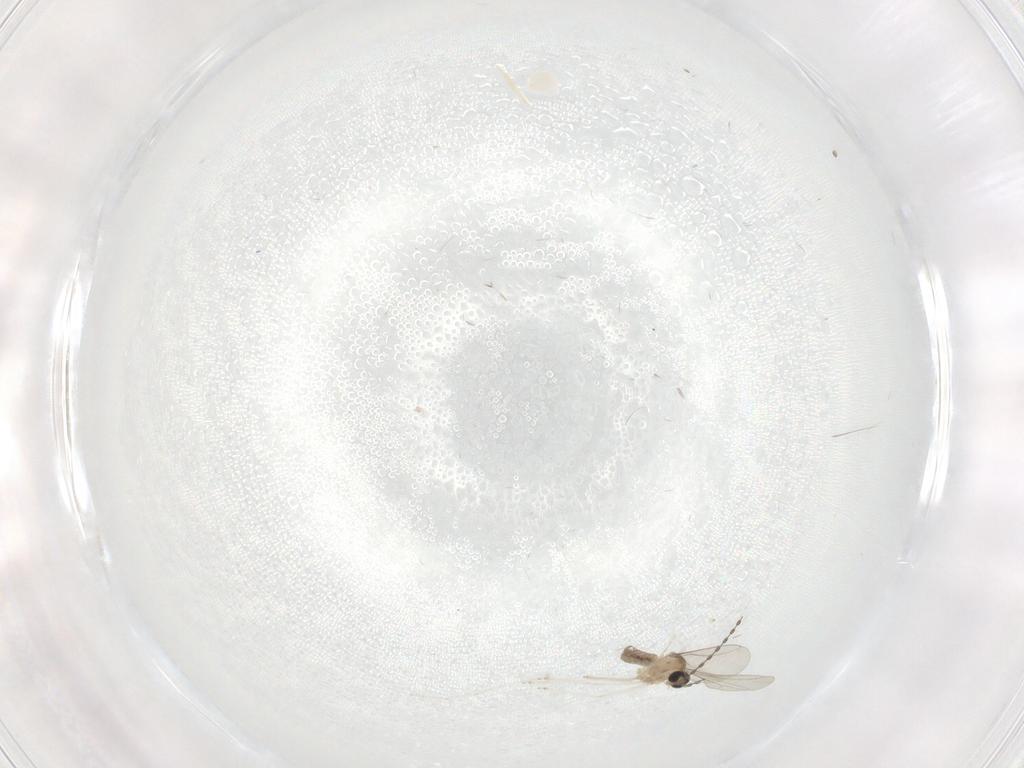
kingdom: Animalia
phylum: Arthropoda
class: Insecta
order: Diptera
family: Cecidomyiidae
